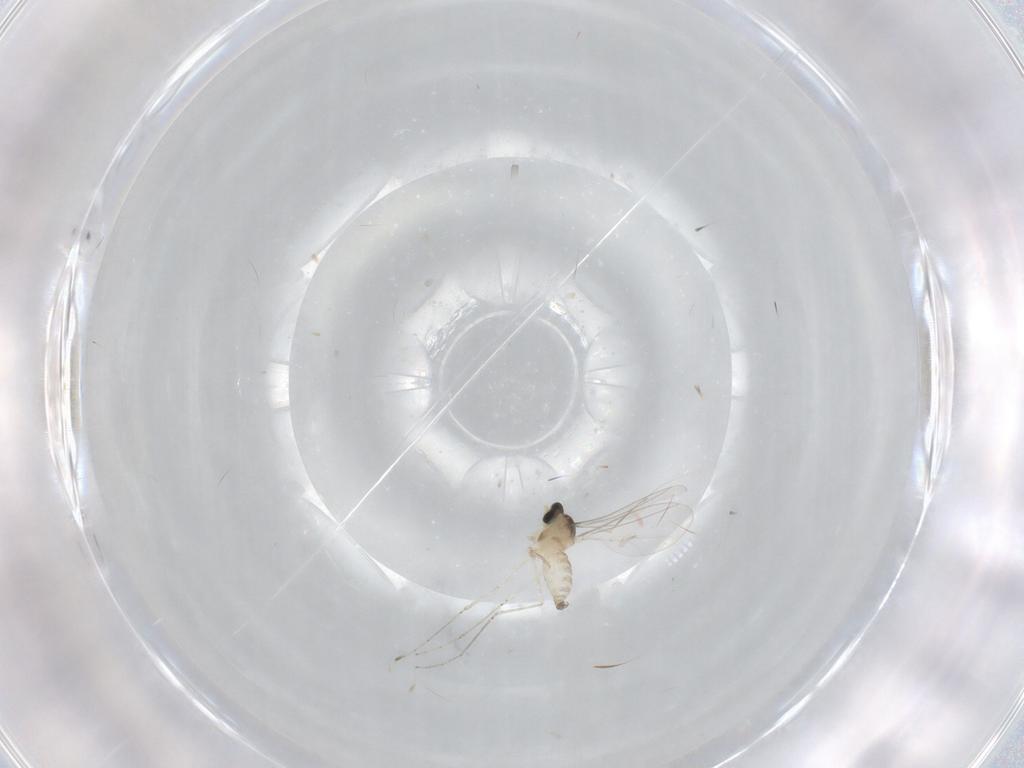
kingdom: Animalia
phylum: Arthropoda
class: Insecta
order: Diptera
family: Cecidomyiidae
